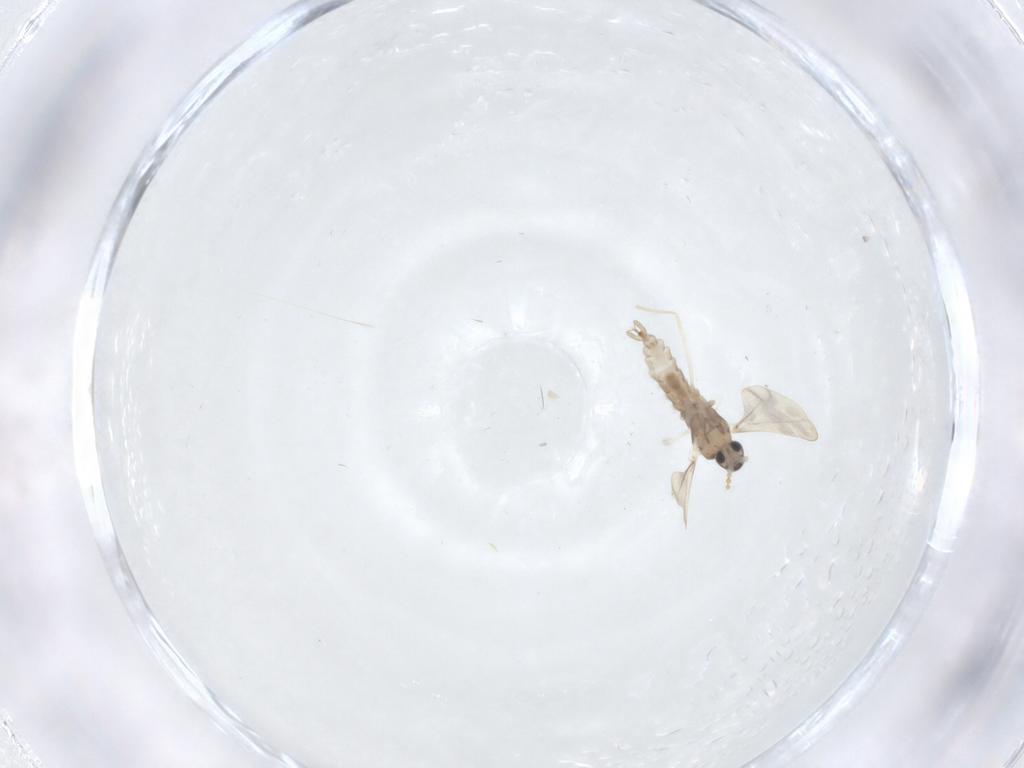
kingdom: Animalia
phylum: Arthropoda
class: Insecta
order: Diptera
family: Cecidomyiidae
